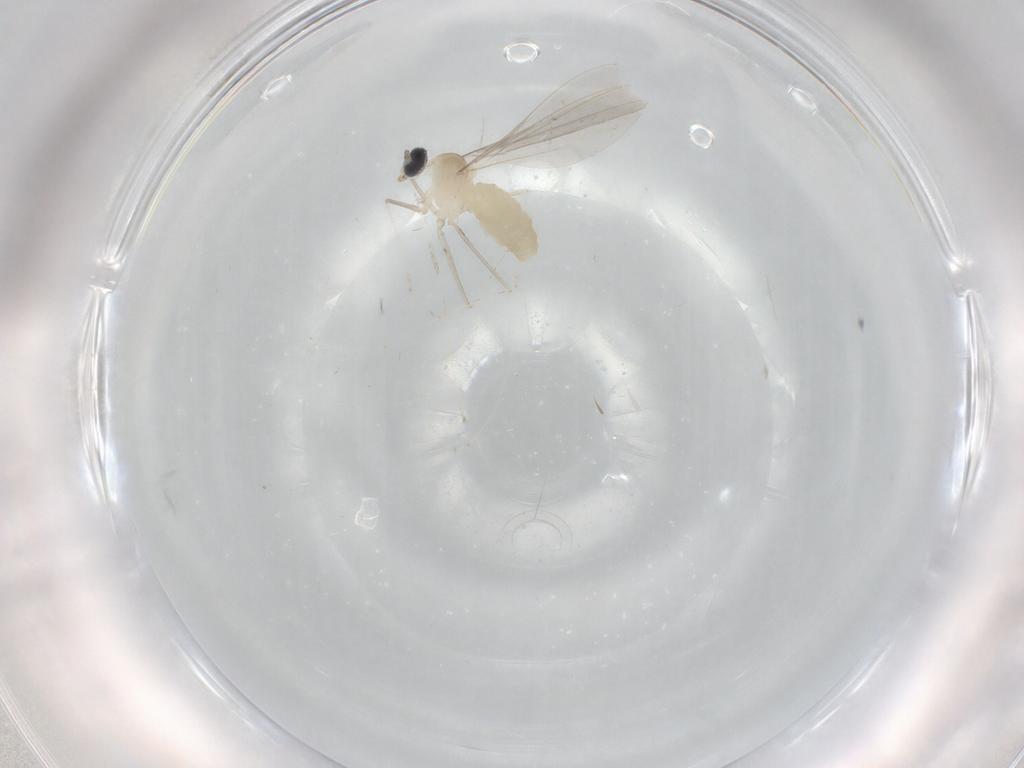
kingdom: Animalia
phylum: Arthropoda
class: Insecta
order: Diptera
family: Cecidomyiidae
